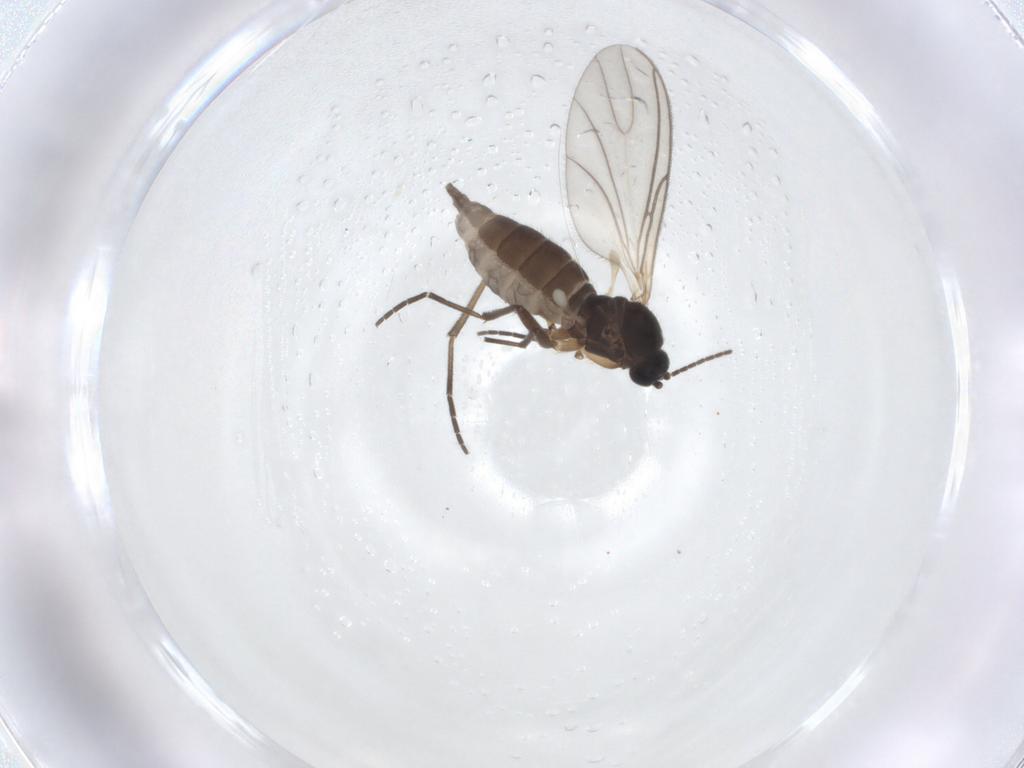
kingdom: Animalia
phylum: Arthropoda
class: Insecta
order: Diptera
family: Sciaridae
